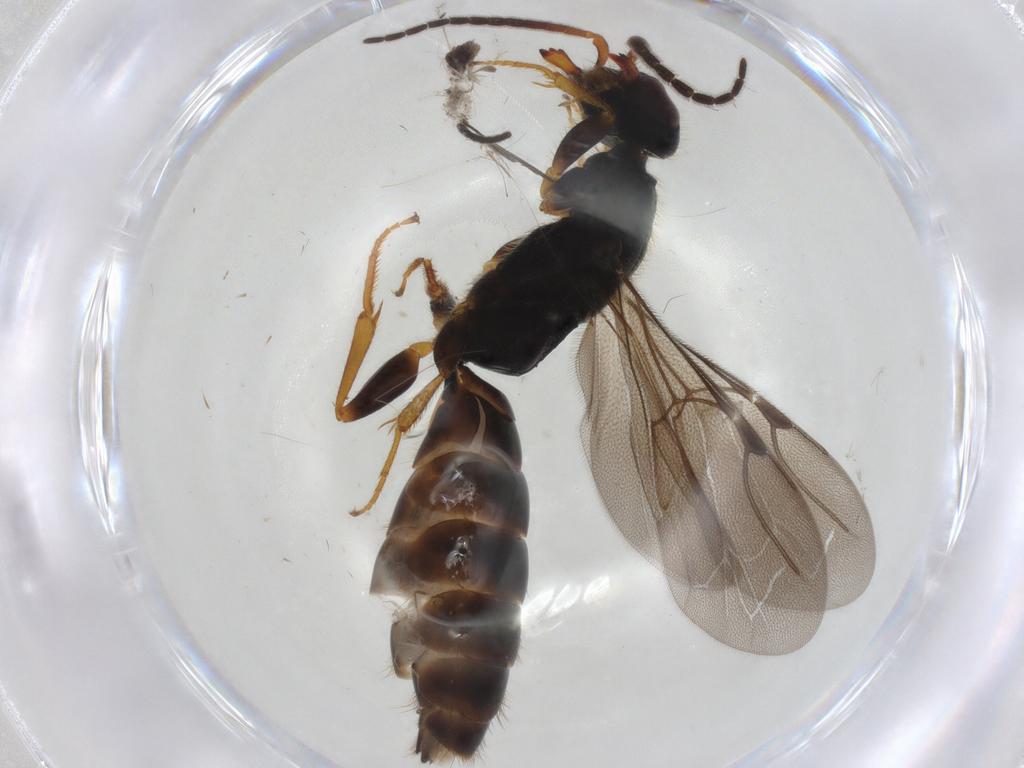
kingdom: Animalia
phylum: Arthropoda
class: Insecta
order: Hymenoptera
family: Bethylidae
